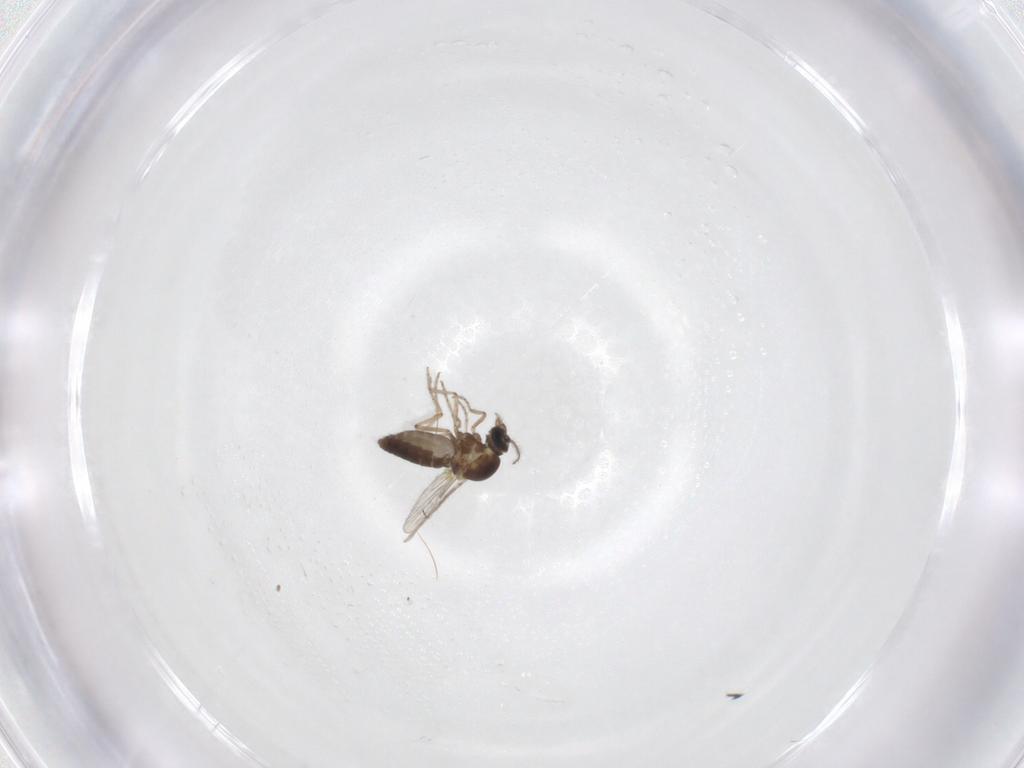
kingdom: Animalia
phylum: Arthropoda
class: Insecta
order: Diptera
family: Ceratopogonidae
